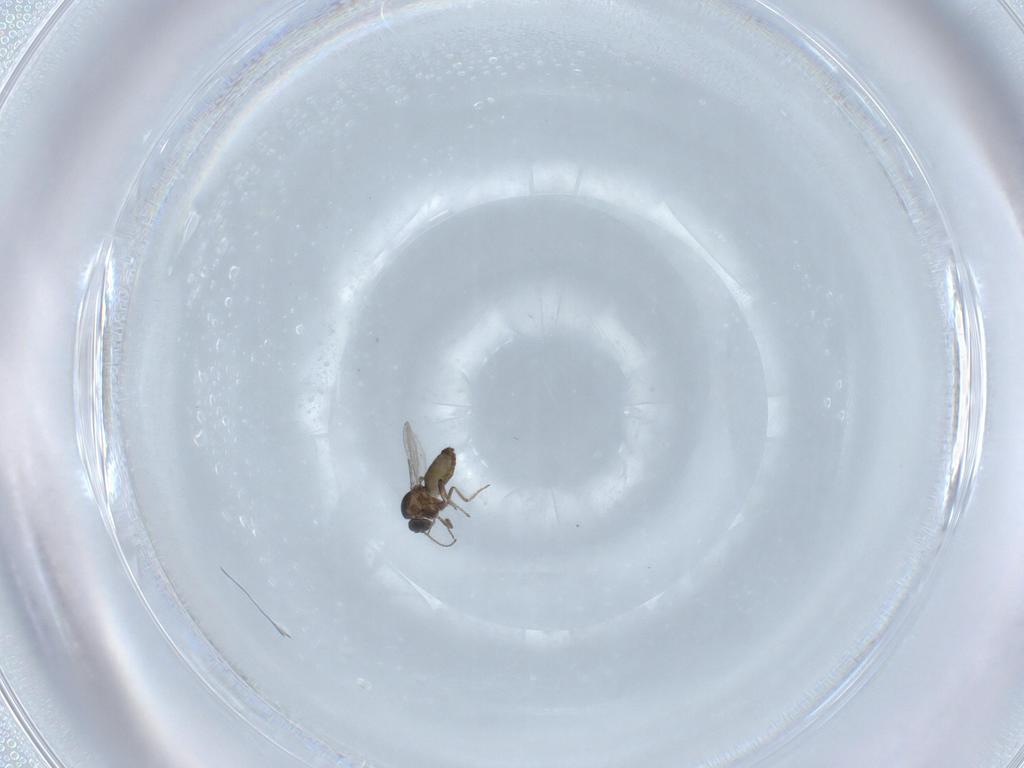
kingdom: Animalia
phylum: Arthropoda
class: Insecta
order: Diptera
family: Ceratopogonidae
